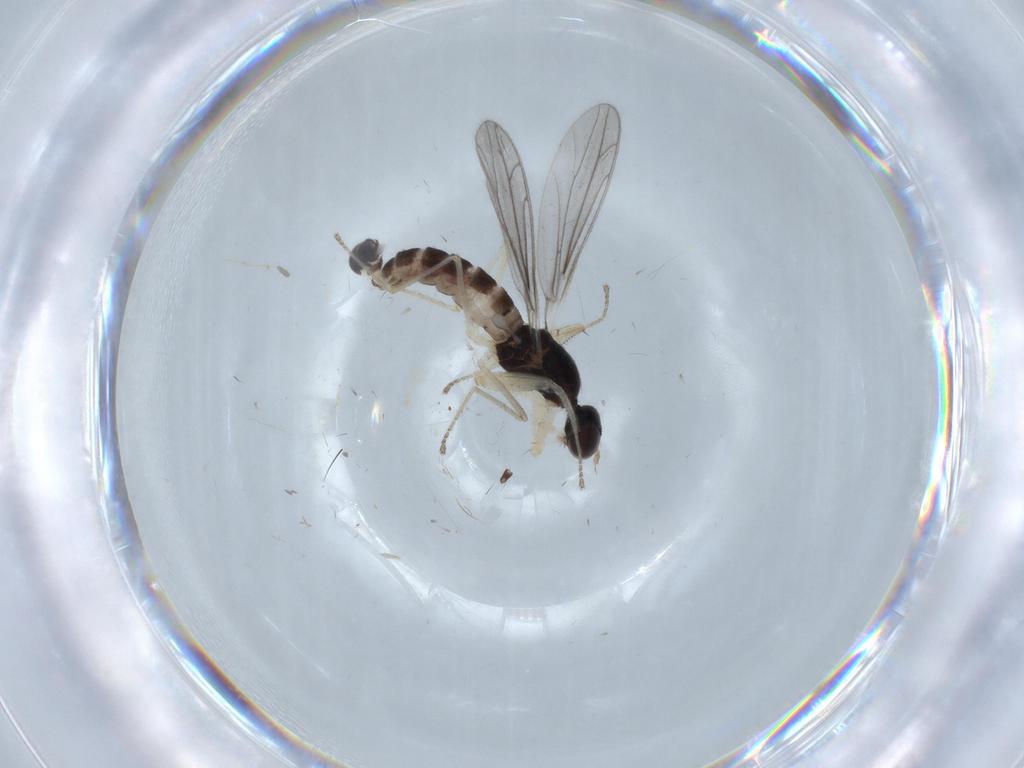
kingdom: Animalia
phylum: Arthropoda
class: Insecta
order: Diptera
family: Empididae
